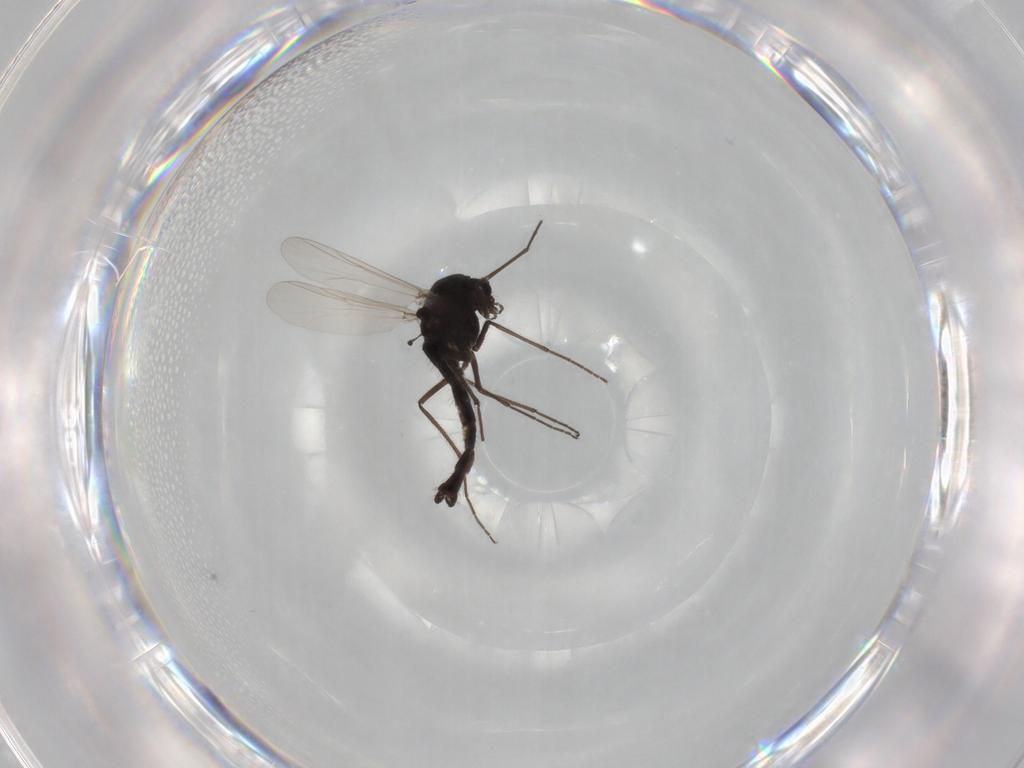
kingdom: Animalia
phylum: Arthropoda
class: Insecta
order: Diptera
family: Chironomidae
